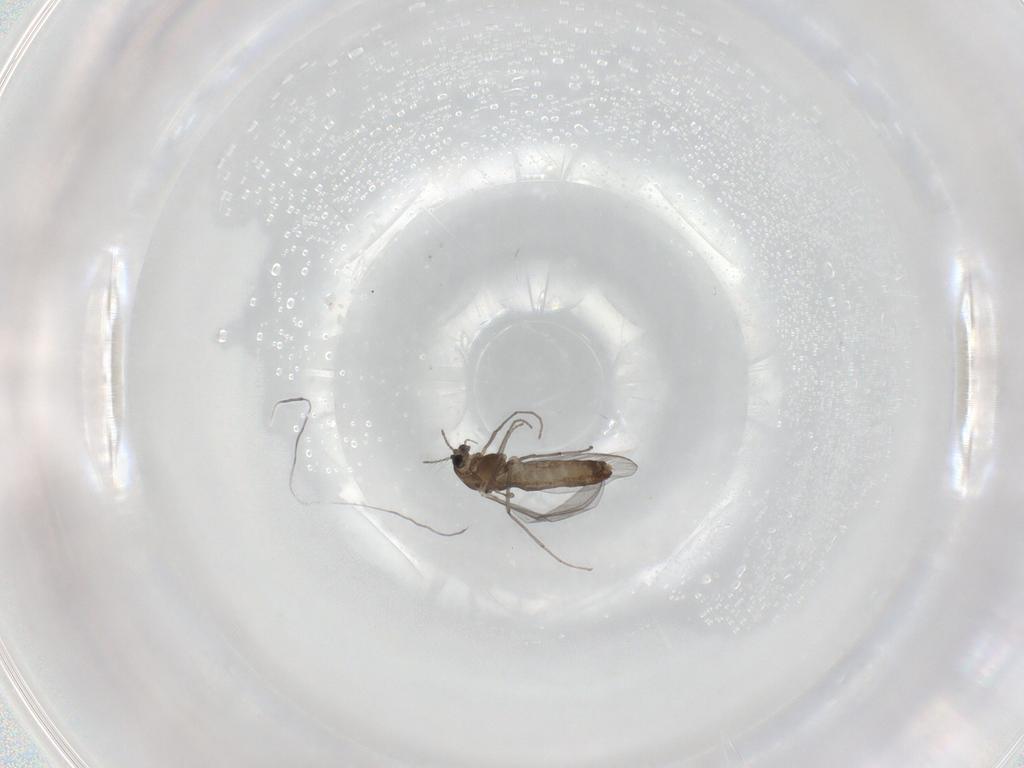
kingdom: Animalia
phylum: Arthropoda
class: Insecta
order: Diptera
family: Chironomidae
